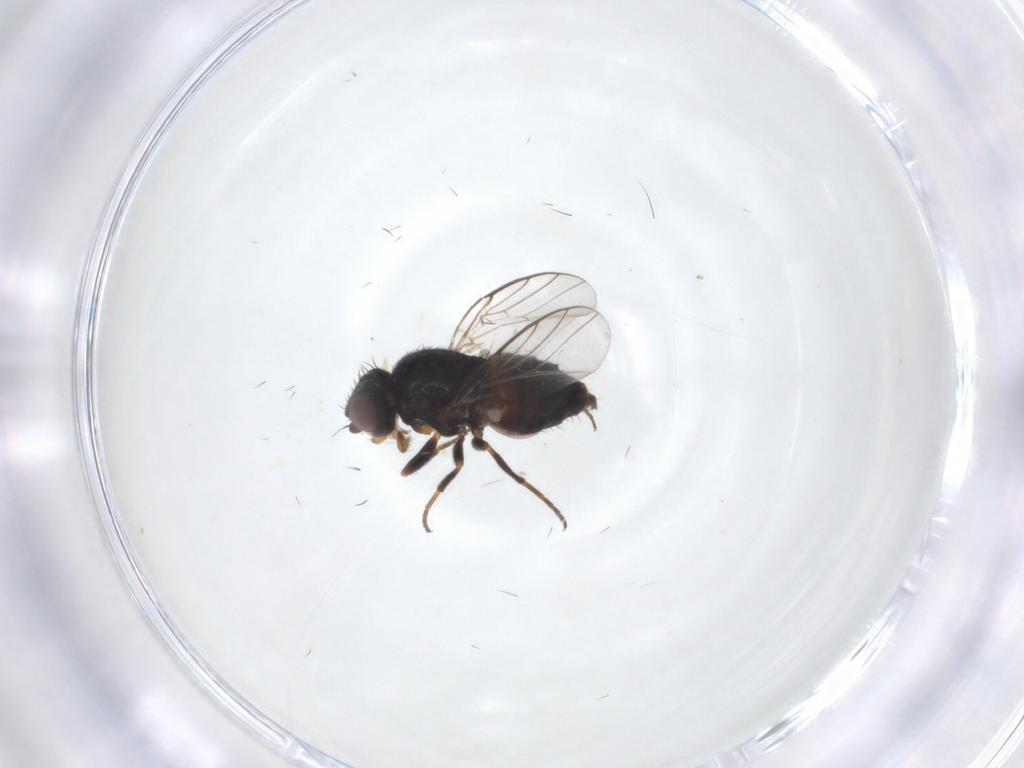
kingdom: Animalia
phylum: Arthropoda
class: Insecta
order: Diptera
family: Chloropidae
